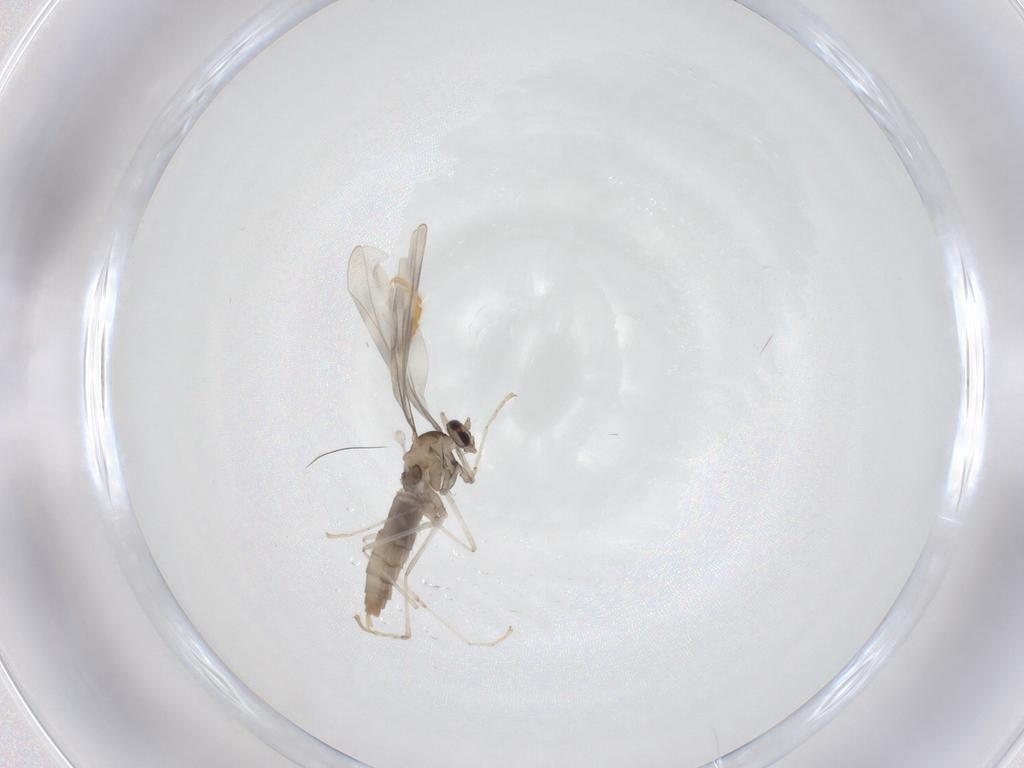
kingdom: Animalia
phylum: Arthropoda
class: Insecta
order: Diptera
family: Cecidomyiidae
